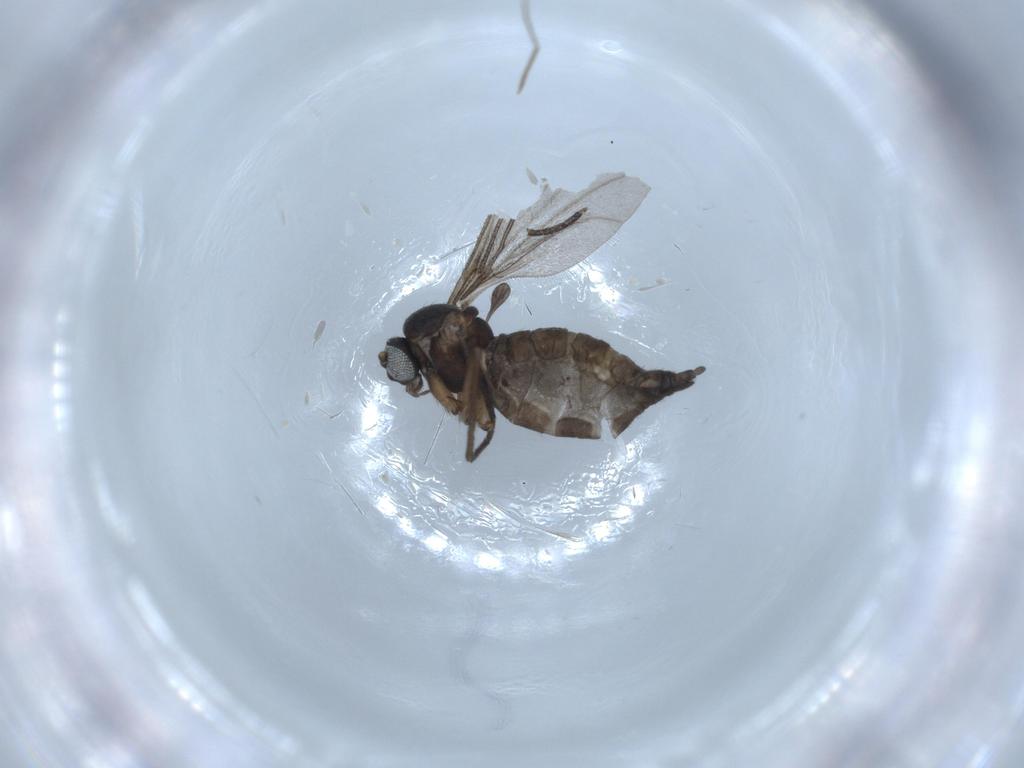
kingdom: Animalia
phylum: Arthropoda
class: Insecta
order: Diptera
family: Sciaridae
